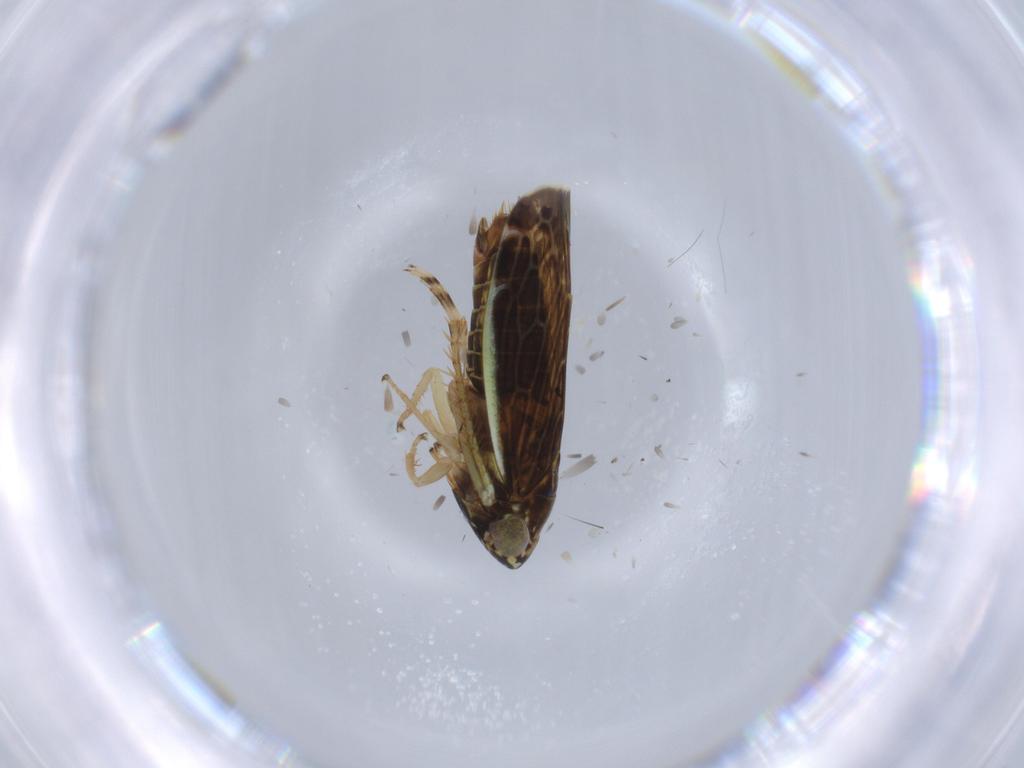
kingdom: Animalia
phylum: Arthropoda
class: Insecta
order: Hemiptera
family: Cicadellidae
